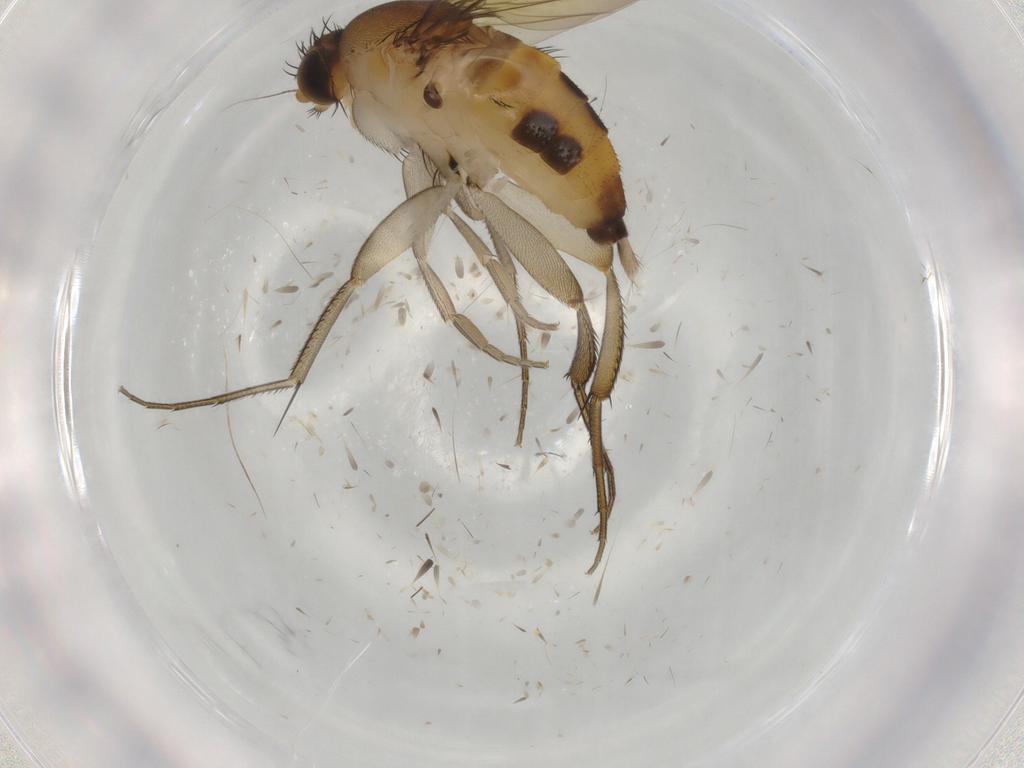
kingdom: Animalia
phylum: Arthropoda
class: Insecta
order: Diptera
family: Phoridae
